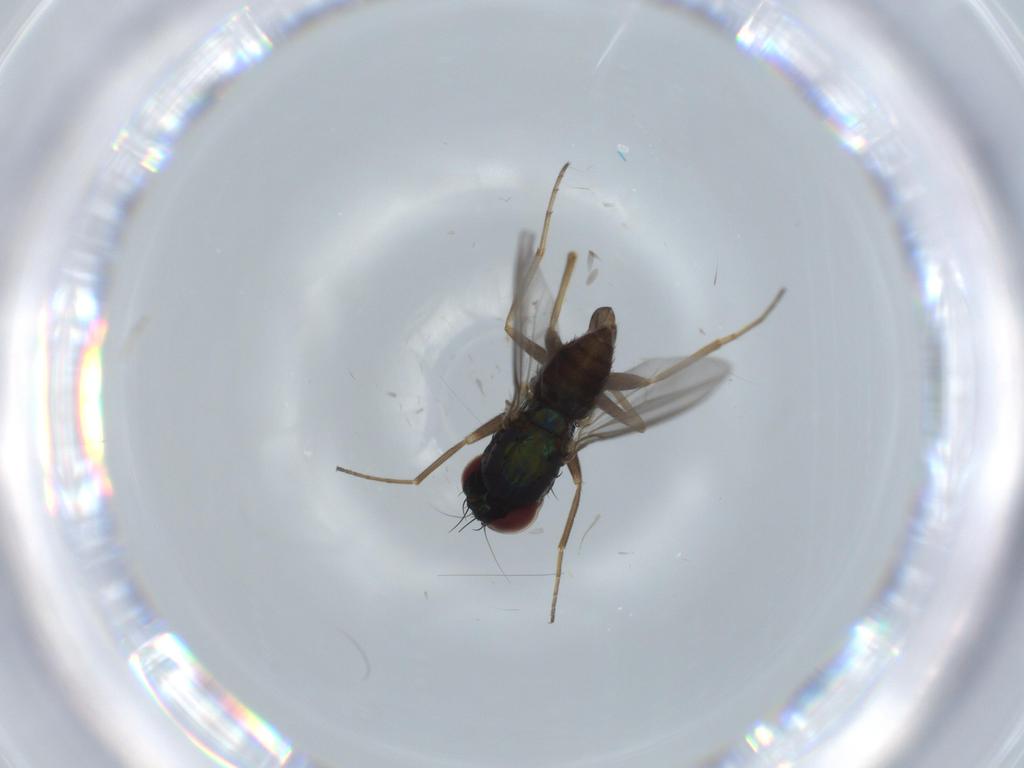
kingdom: Animalia
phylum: Arthropoda
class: Insecta
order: Diptera
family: Dolichopodidae
